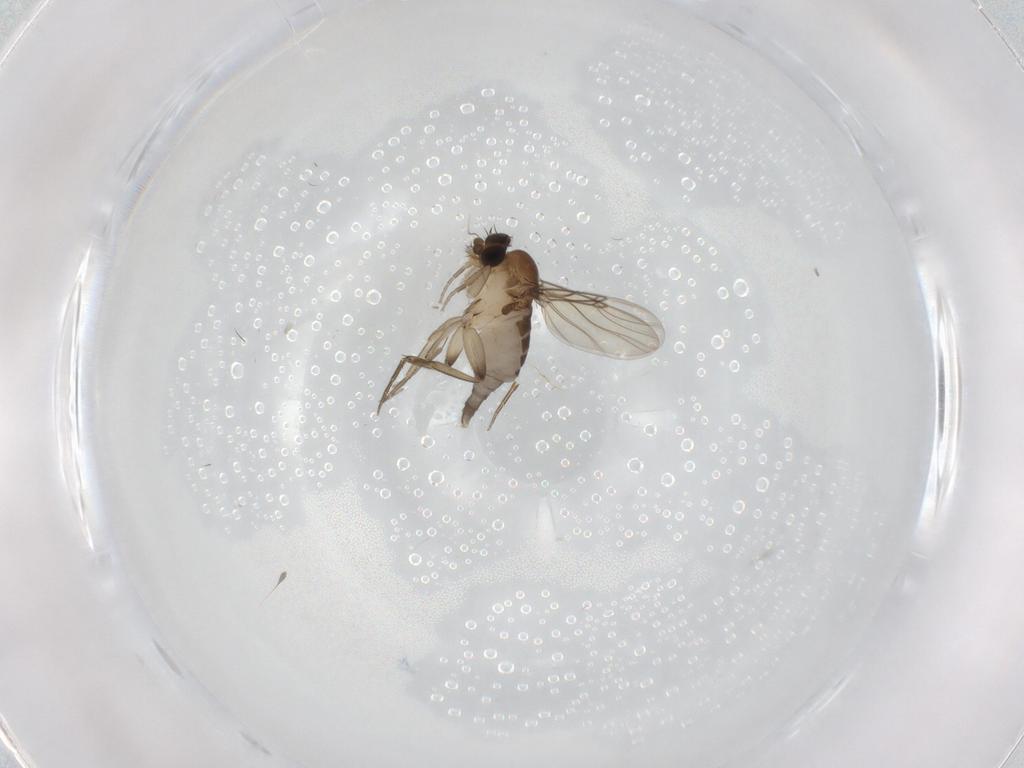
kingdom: Animalia
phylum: Arthropoda
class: Insecta
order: Diptera
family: Phoridae
